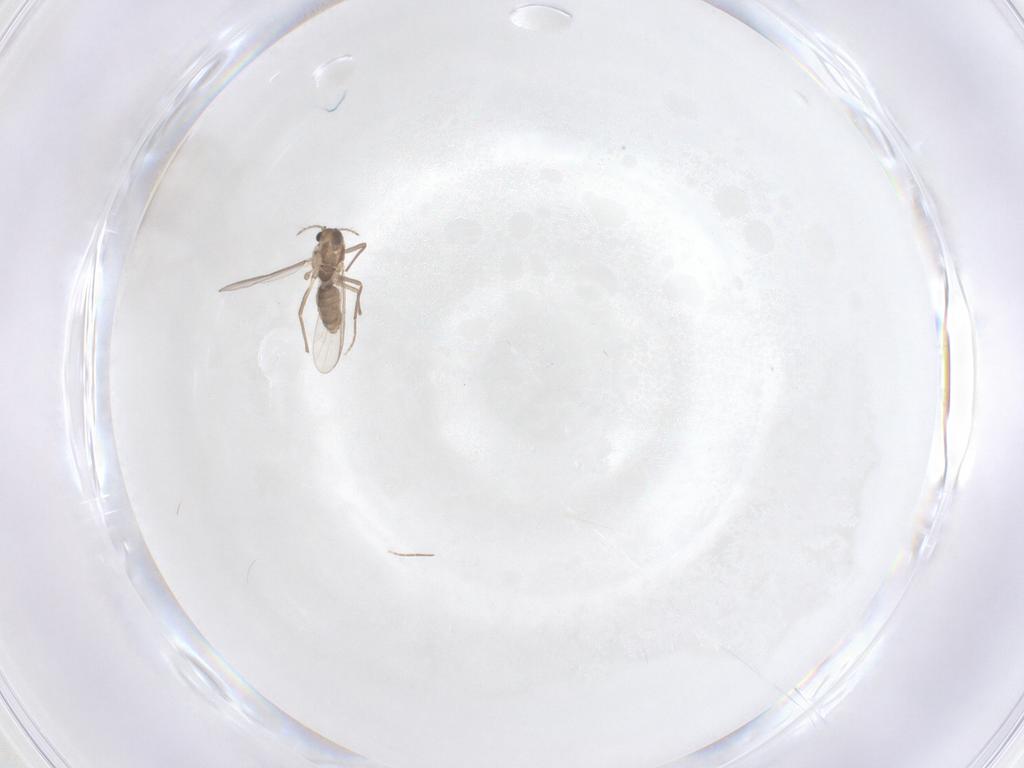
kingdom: Animalia
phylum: Arthropoda
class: Insecta
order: Diptera
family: Chironomidae
